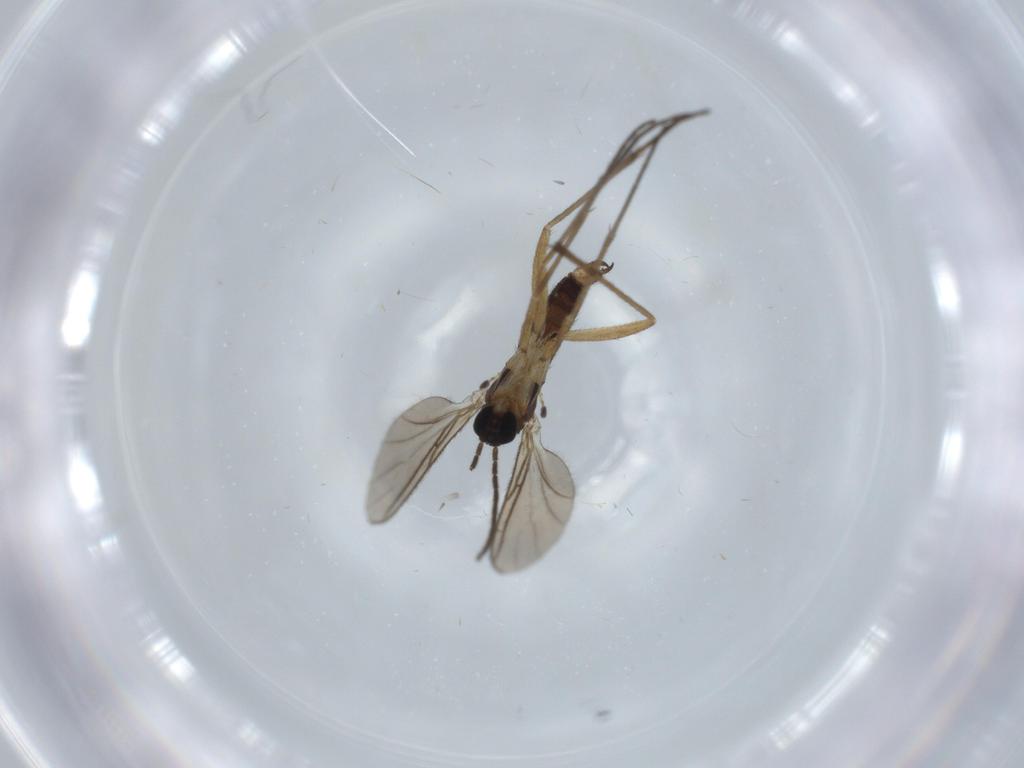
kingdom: Animalia
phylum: Arthropoda
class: Insecta
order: Diptera
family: Sciaridae
